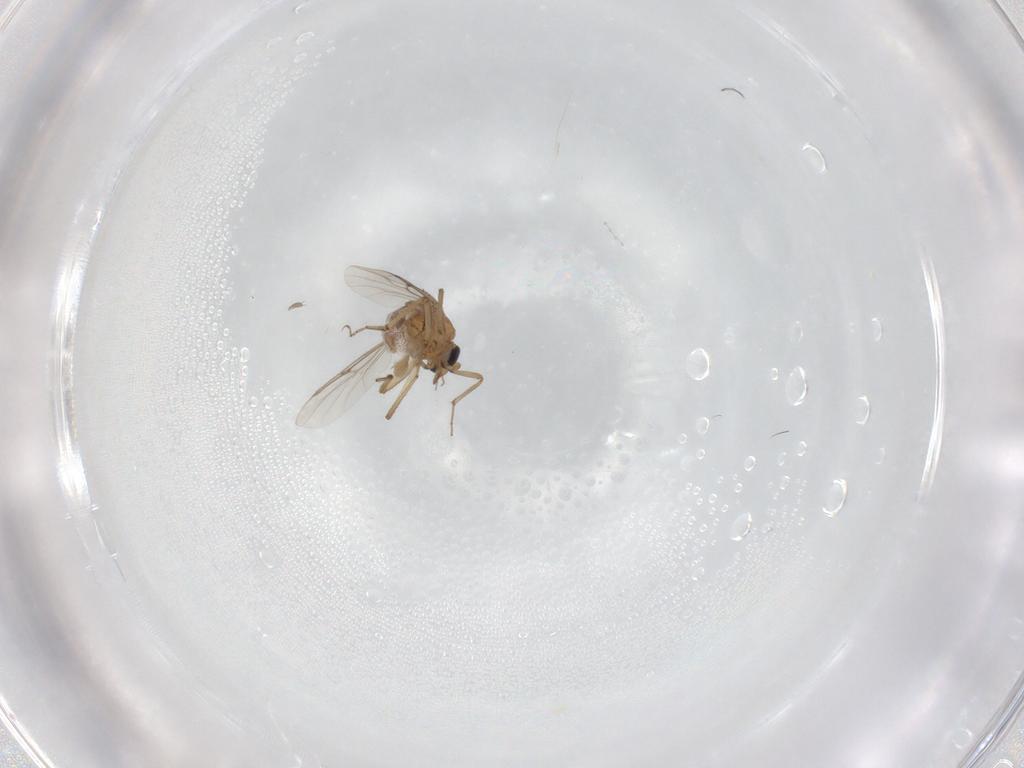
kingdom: Animalia
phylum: Arthropoda
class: Insecta
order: Diptera
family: Ceratopogonidae
